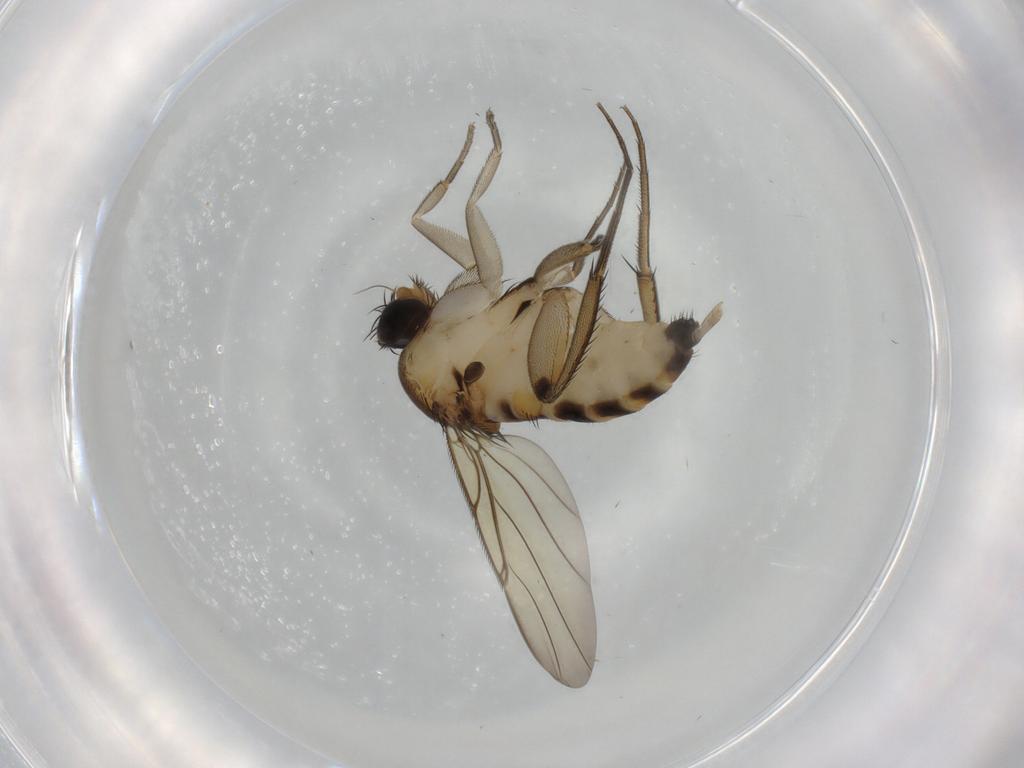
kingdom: Animalia
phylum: Arthropoda
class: Insecta
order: Diptera
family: Phoridae
